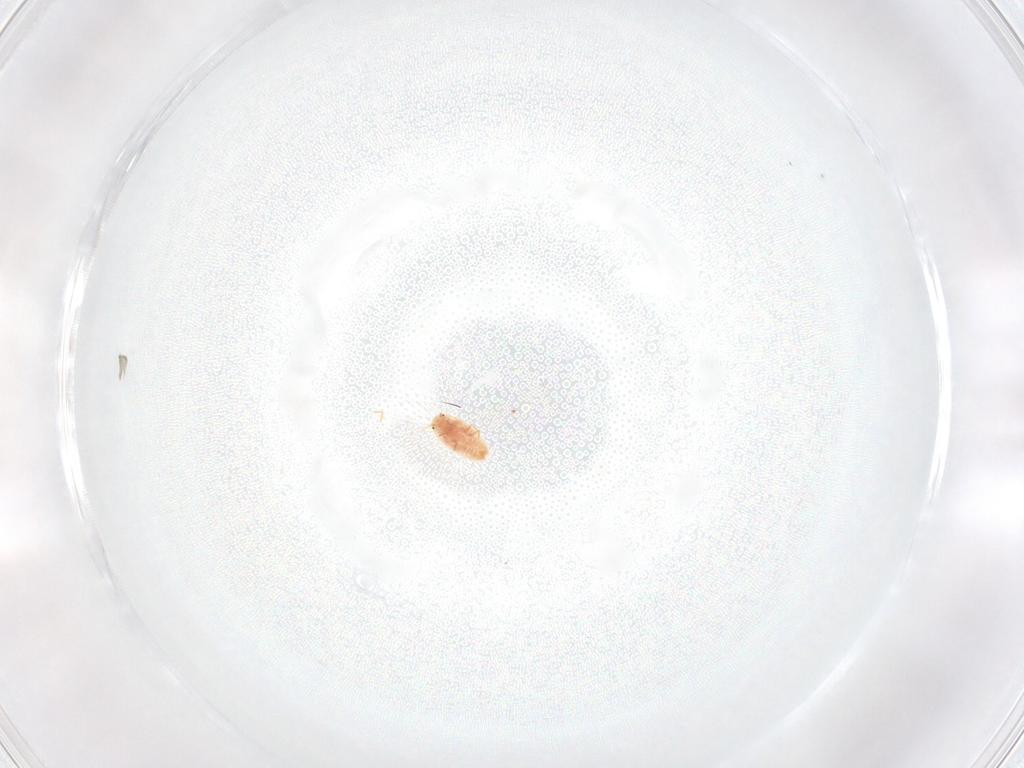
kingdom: Animalia
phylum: Arthropoda
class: Insecta
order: Hemiptera
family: Coccidae
